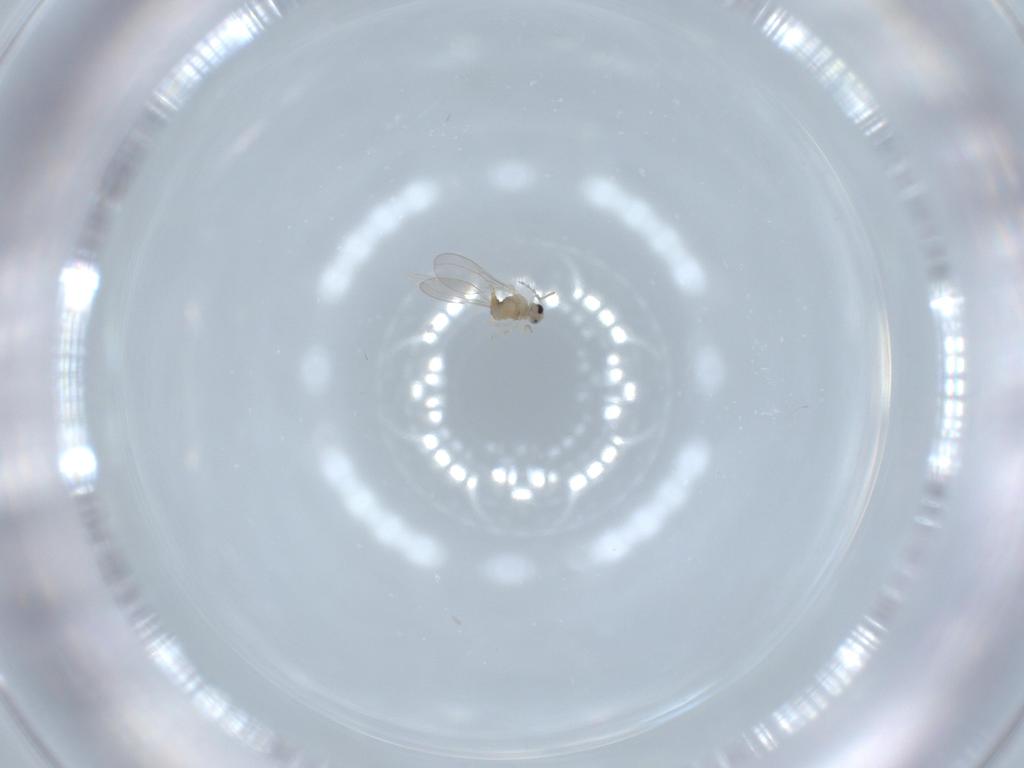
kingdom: Animalia
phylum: Arthropoda
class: Insecta
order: Diptera
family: Cecidomyiidae
